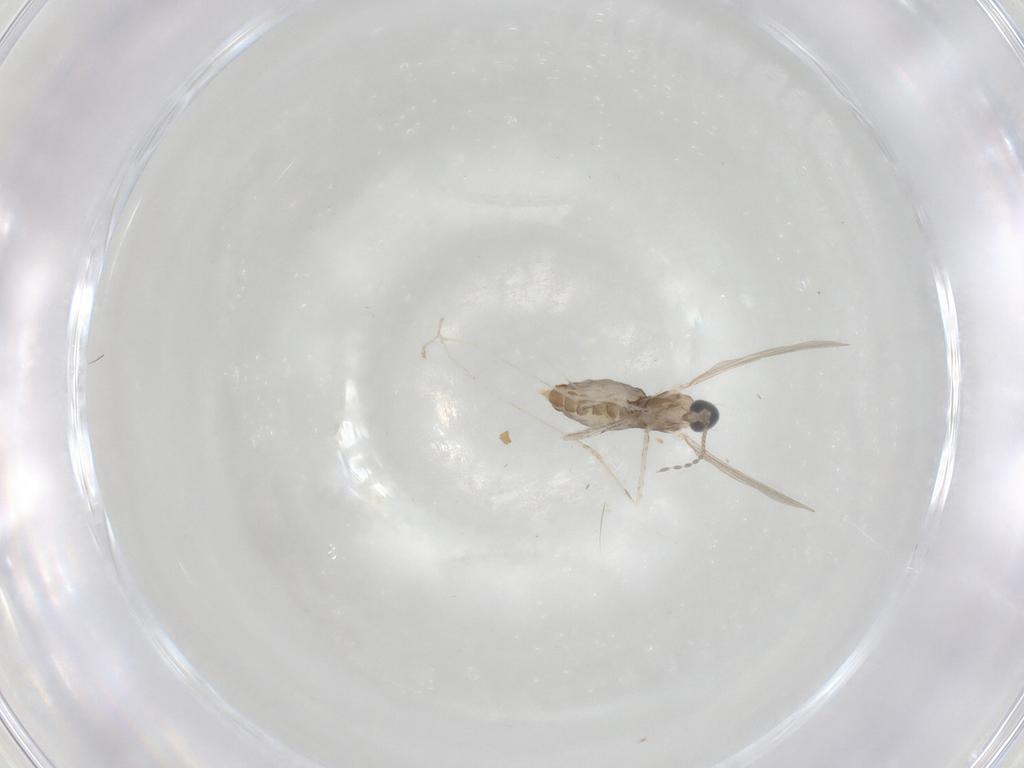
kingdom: Animalia
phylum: Arthropoda
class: Insecta
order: Diptera
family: Cecidomyiidae
